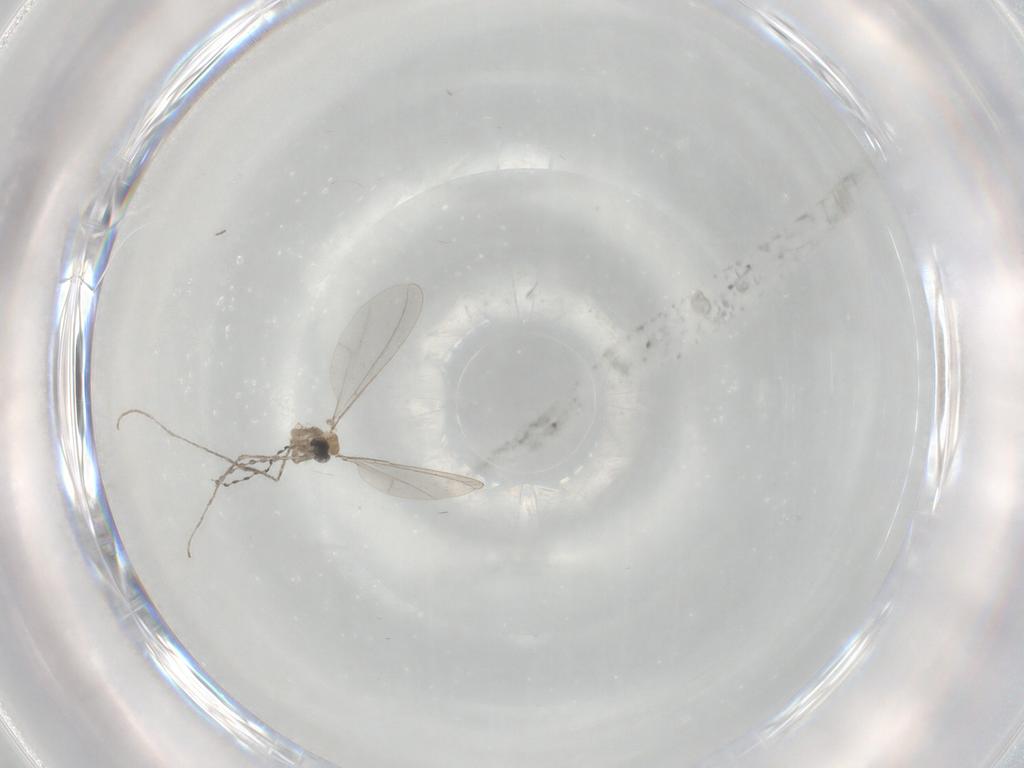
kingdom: Animalia
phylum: Arthropoda
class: Insecta
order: Diptera
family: Cecidomyiidae
